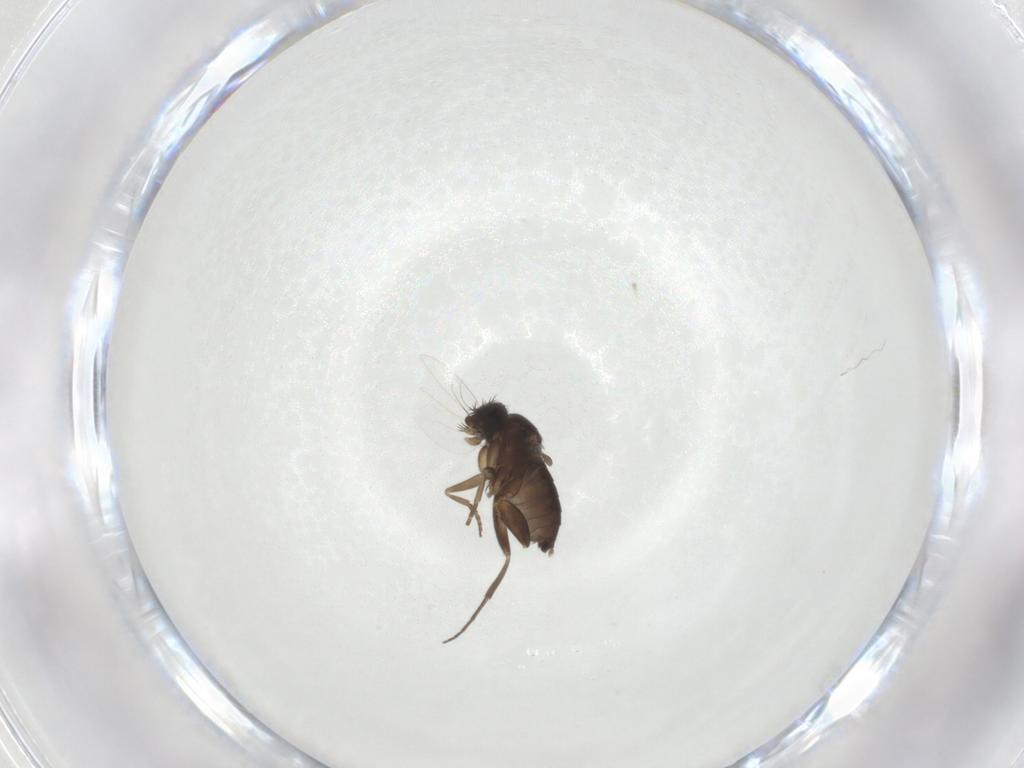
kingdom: Animalia
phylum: Arthropoda
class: Insecta
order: Diptera
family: Phoridae
